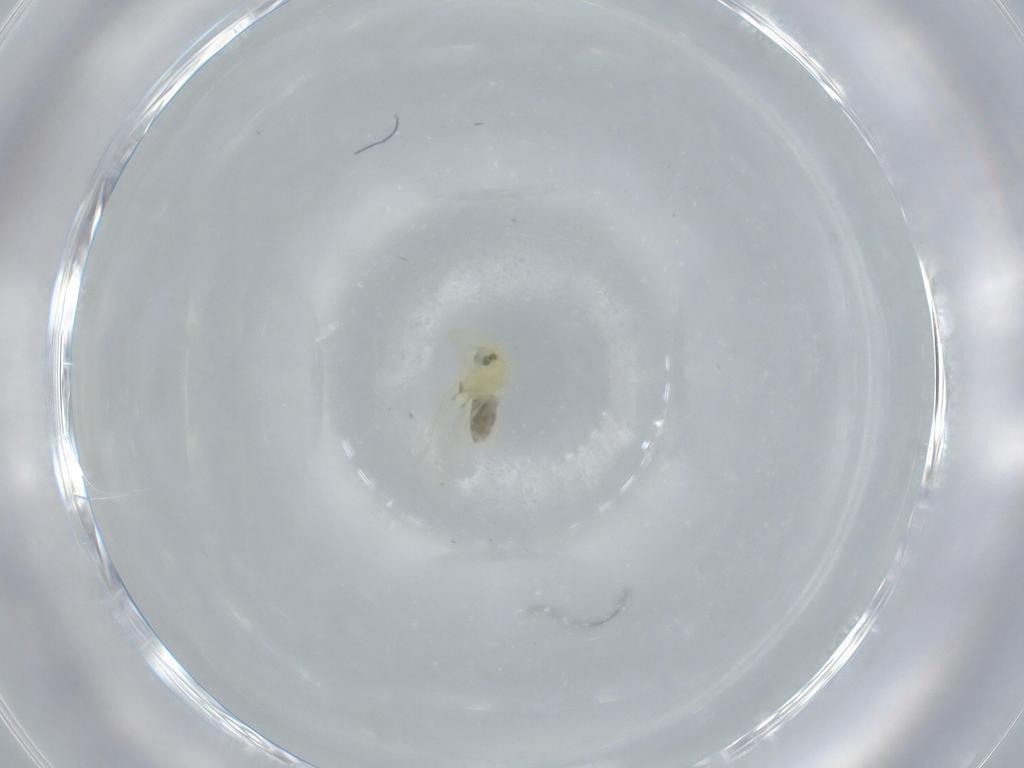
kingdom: Animalia
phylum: Arthropoda
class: Insecta
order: Hemiptera
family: Aleyrodidae
